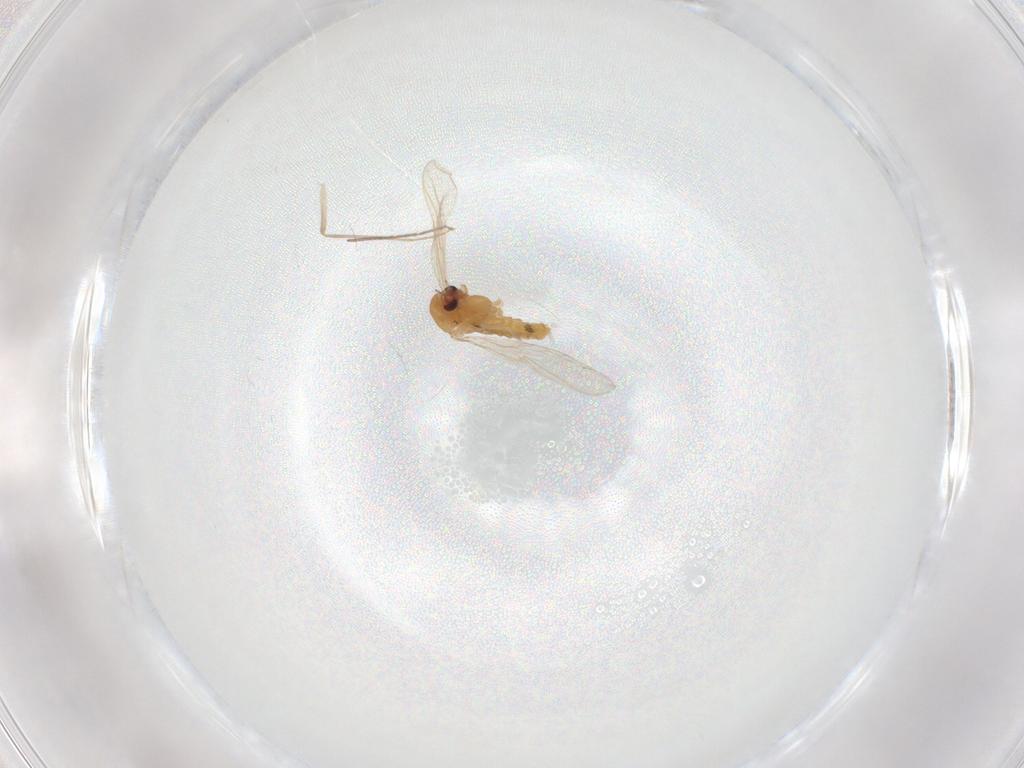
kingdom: Animalia
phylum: Arthropoda
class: Insecta
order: Diptera
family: Chironomidae
